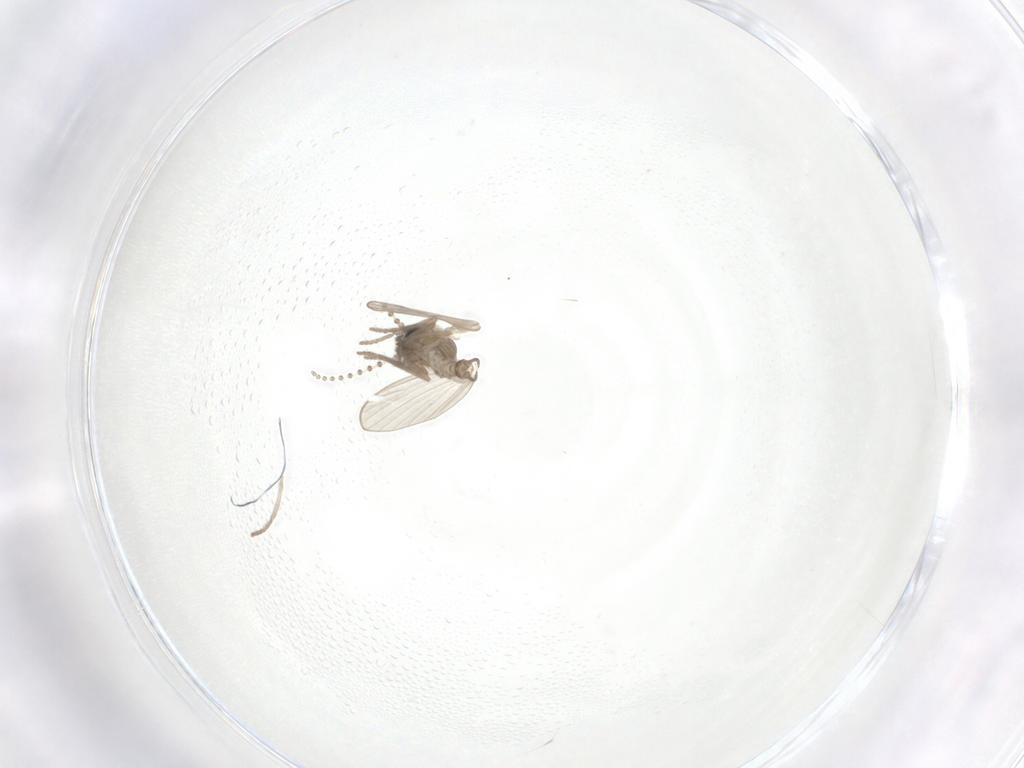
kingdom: Animalia
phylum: Arthropoda
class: Insecta
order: Diptera
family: Psychodidae
